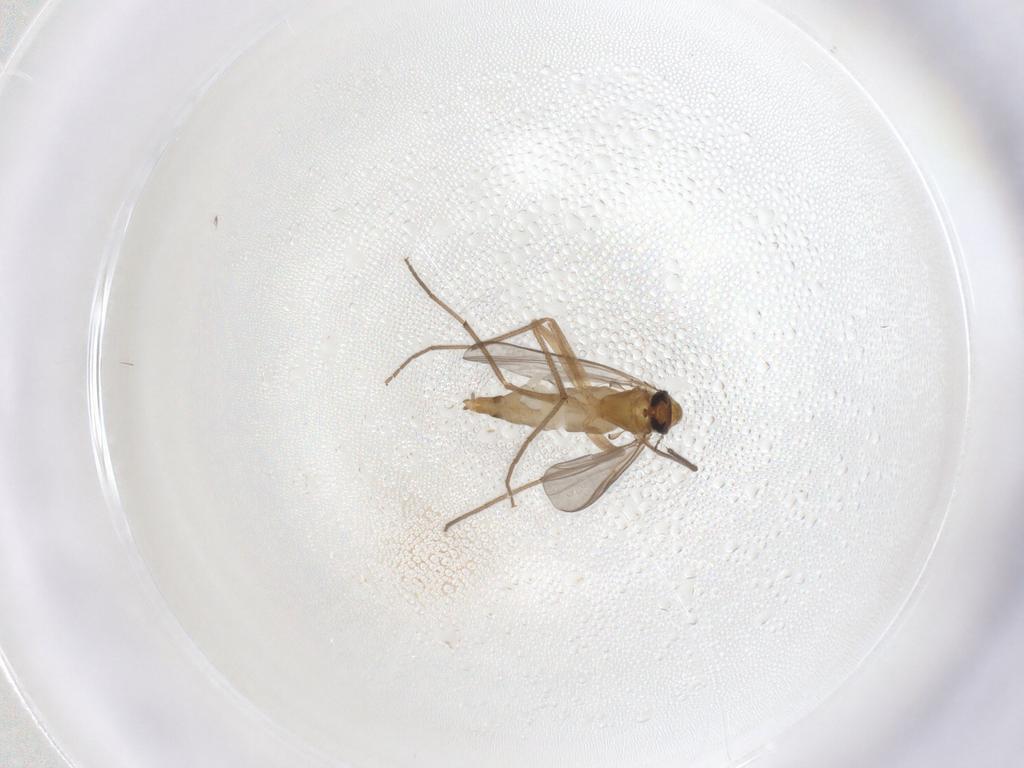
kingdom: Animalia
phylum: Arthropoda
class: Insecta
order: Diptera
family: Chironomidae
